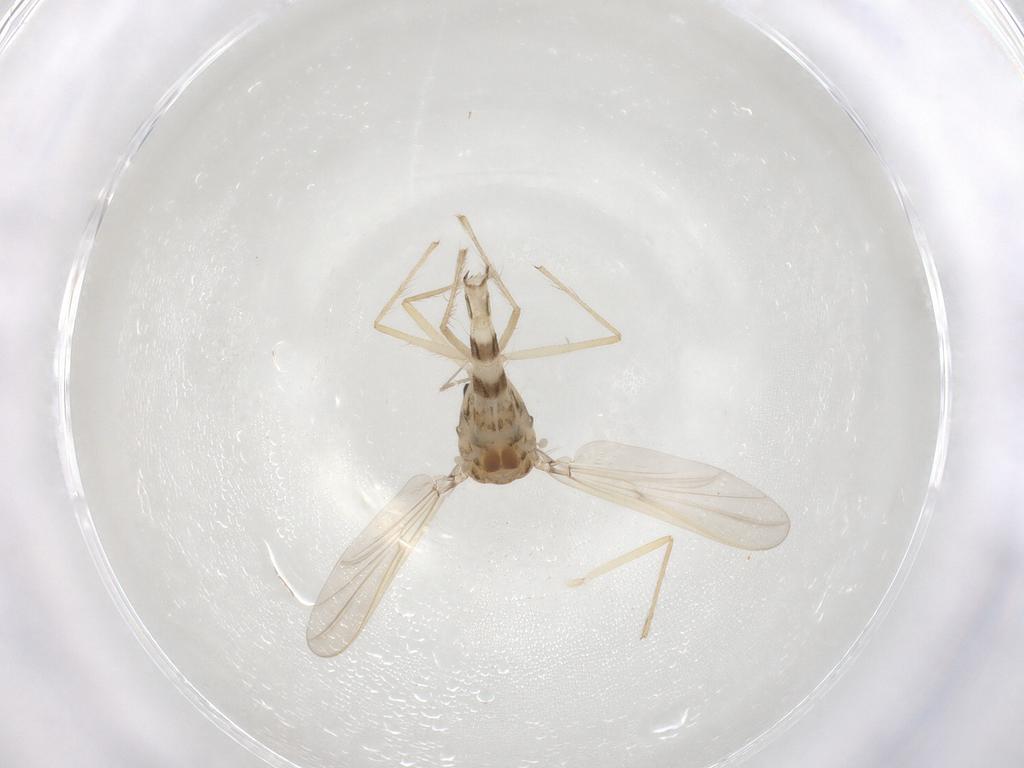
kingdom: Animalia
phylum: Arthropoda
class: Insecta
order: Diptera
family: Chironomidae
